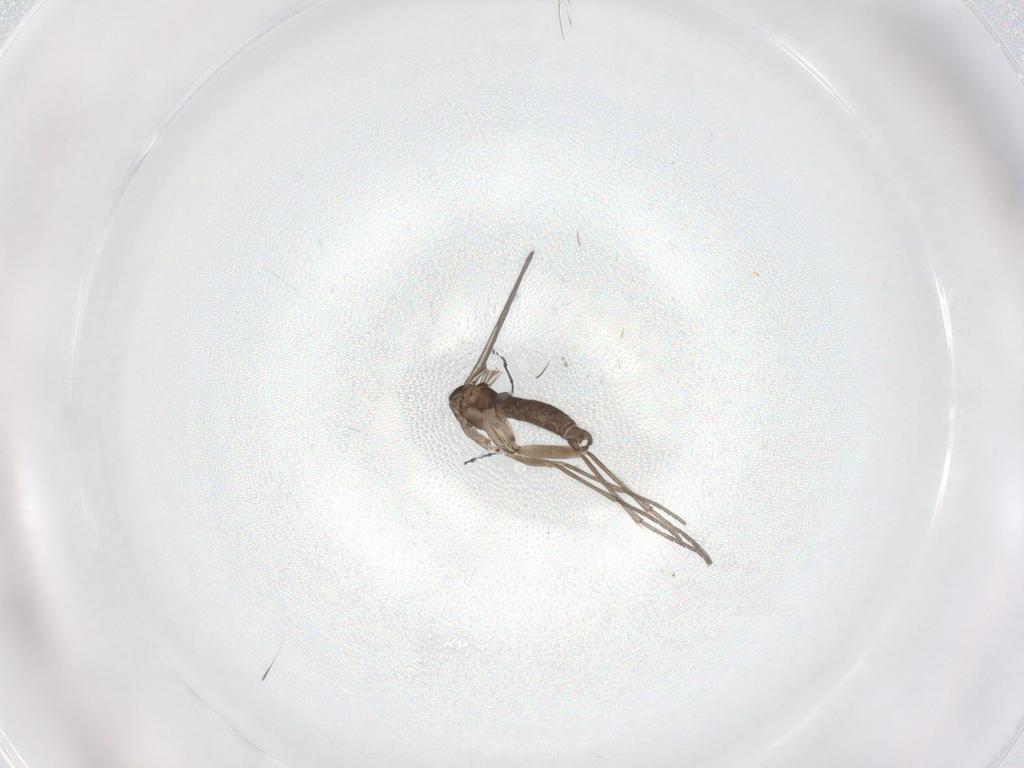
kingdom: Animalia
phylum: Arthropoda
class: Insecta
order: Diptera
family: Sciaridae
